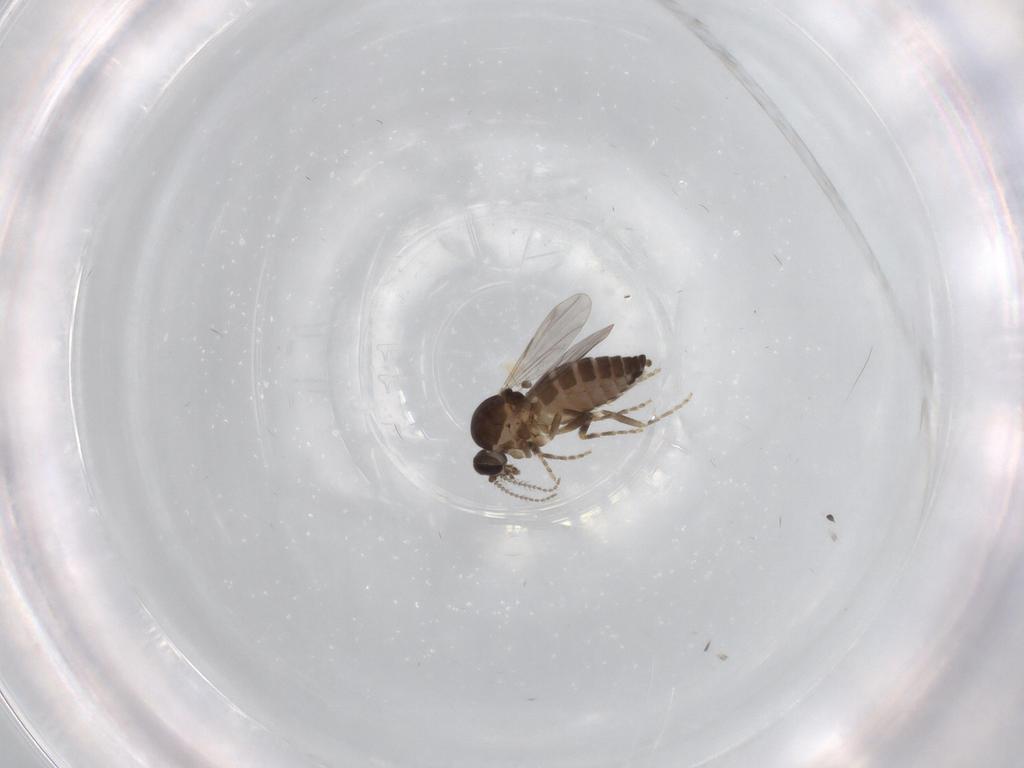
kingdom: Animalia
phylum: Arthropoda
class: Insecta
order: Diptera
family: Ceratopogonidae
